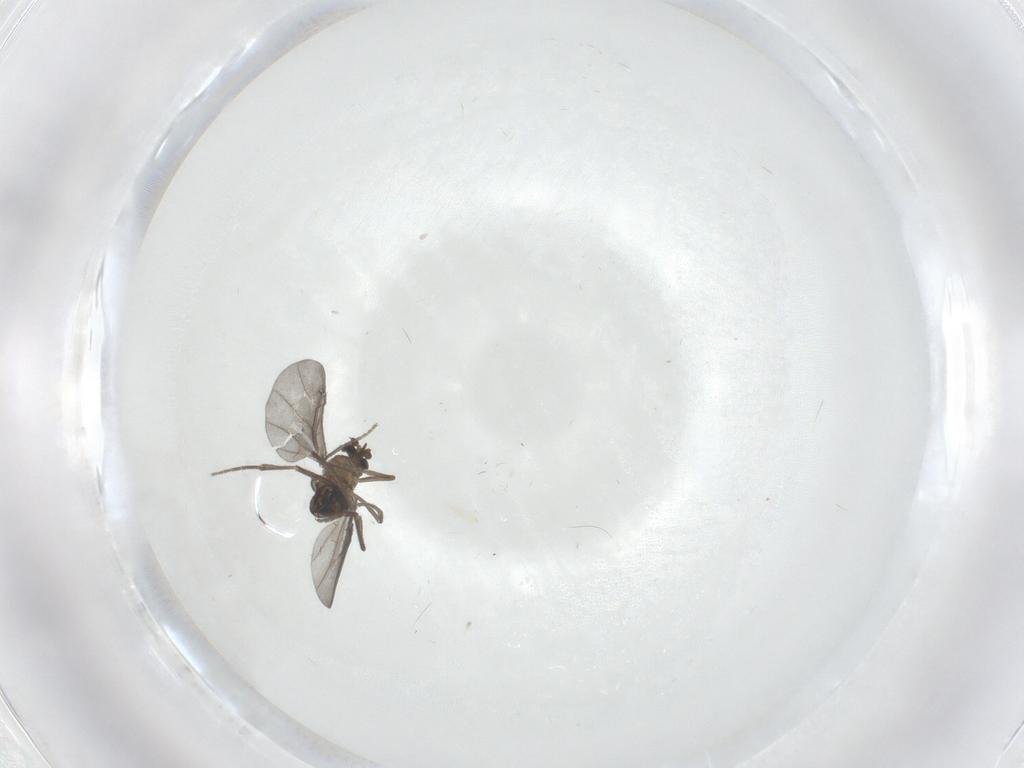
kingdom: Animalia
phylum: Arthropoda
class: Insecta
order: Diptera
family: Phoridae
